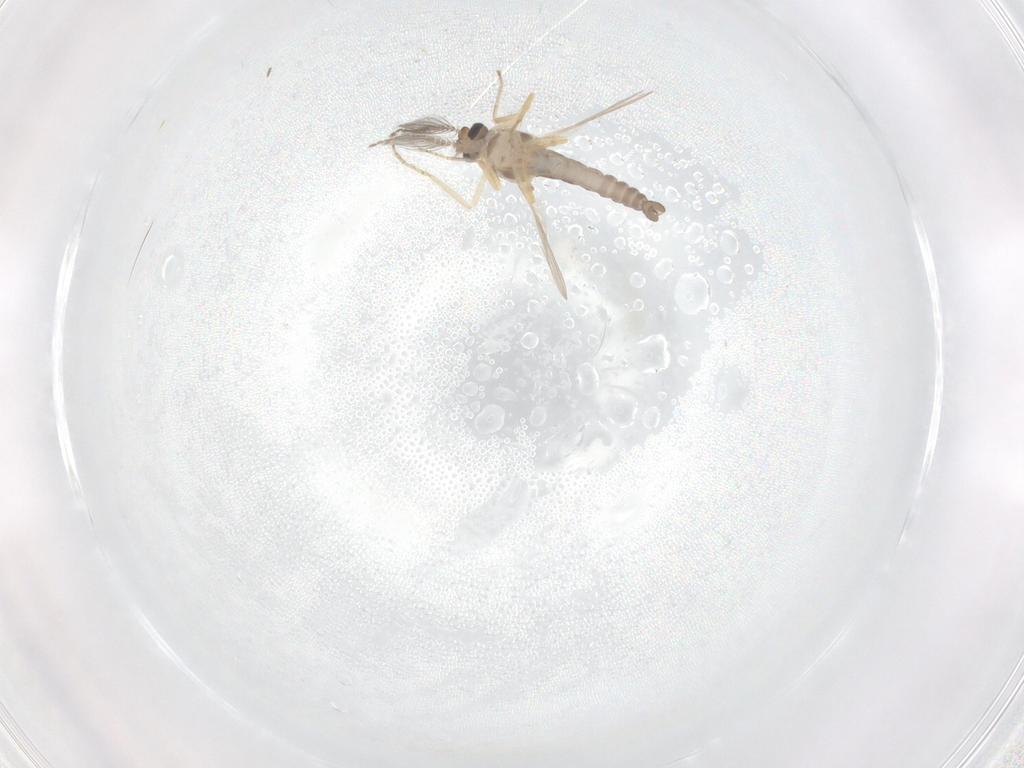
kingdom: Animalia
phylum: Arthropoda
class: Insecta
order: Diptera
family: Ceratopogonidae
